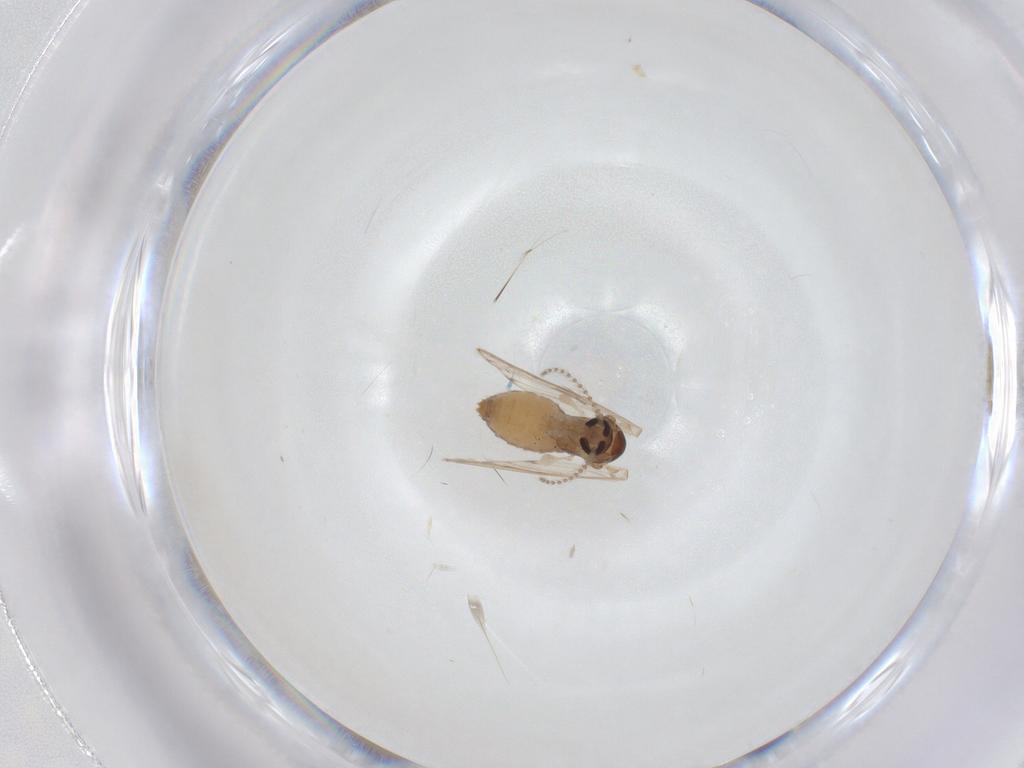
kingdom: Animalia
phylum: Arthropoda
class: Insecta
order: Diptera
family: Psychodidae
